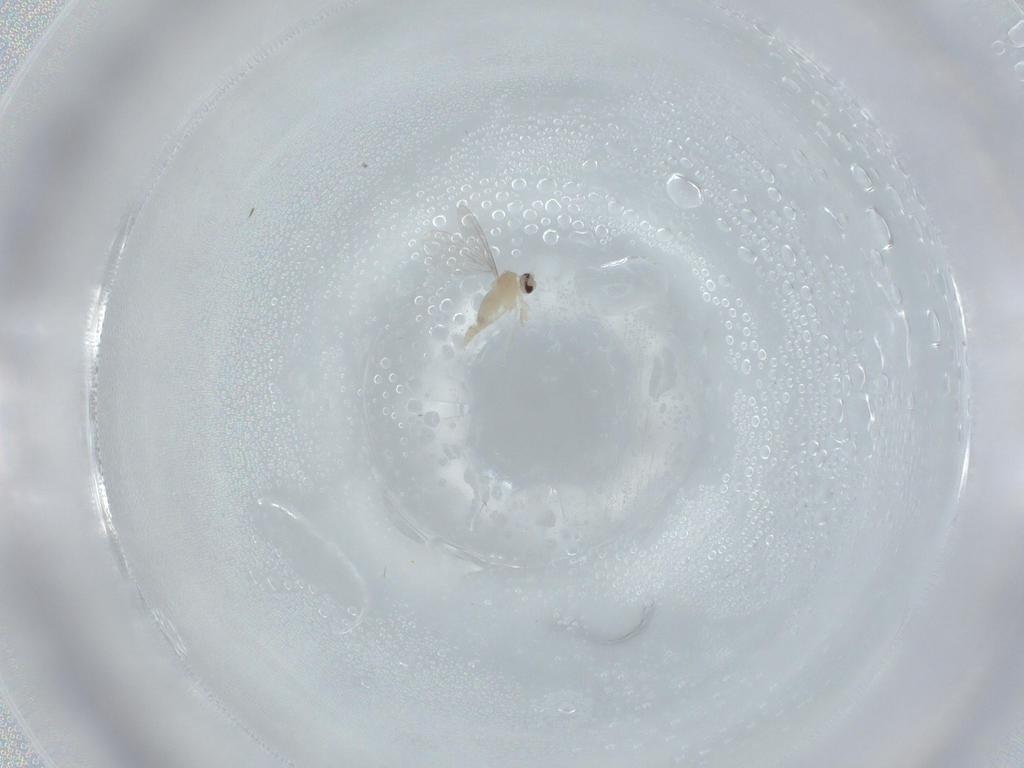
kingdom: Animalia
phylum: Arthropoda
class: Insecta
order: Diptera
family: Cecidomyiidae
